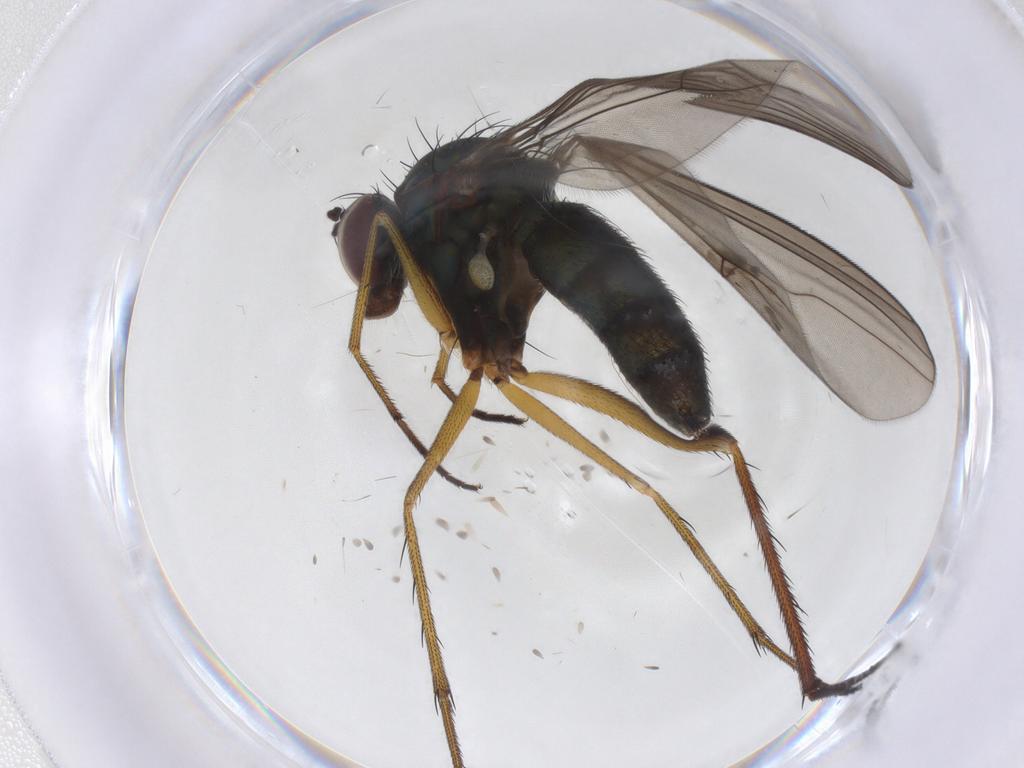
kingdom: Animalia
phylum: Arthropoda
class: Insecta
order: Diptera
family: Dolichopodidae
